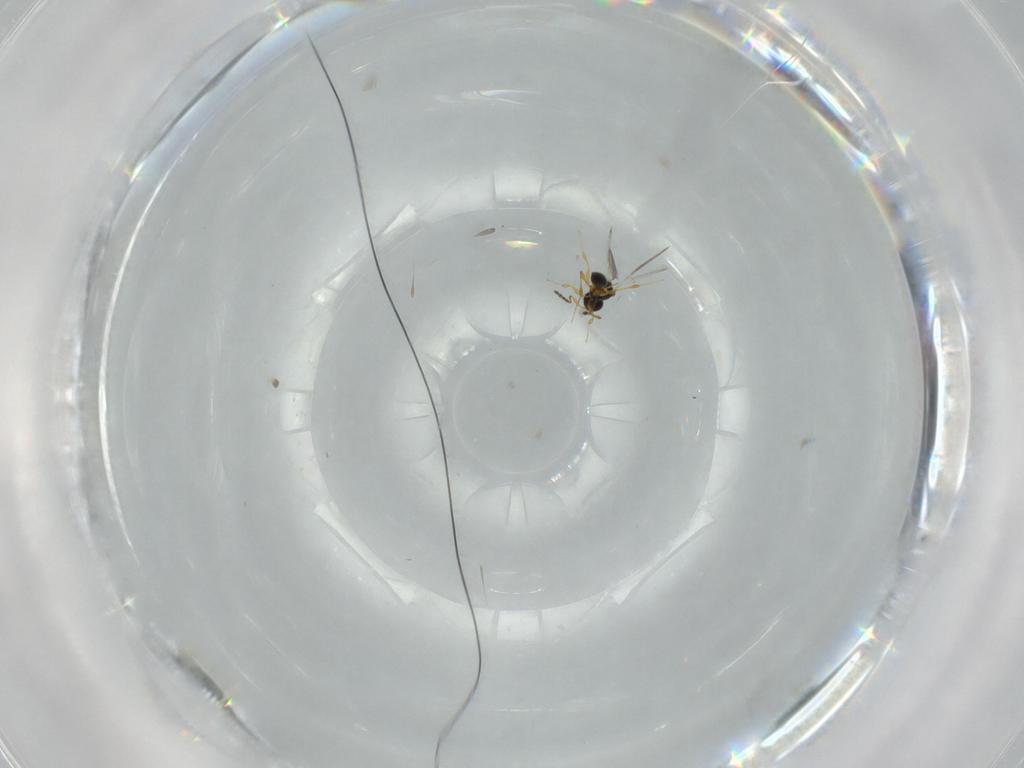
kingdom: Animalia
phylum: Arthropoda
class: Insecta
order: Hymenoptera
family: Platygastridae
